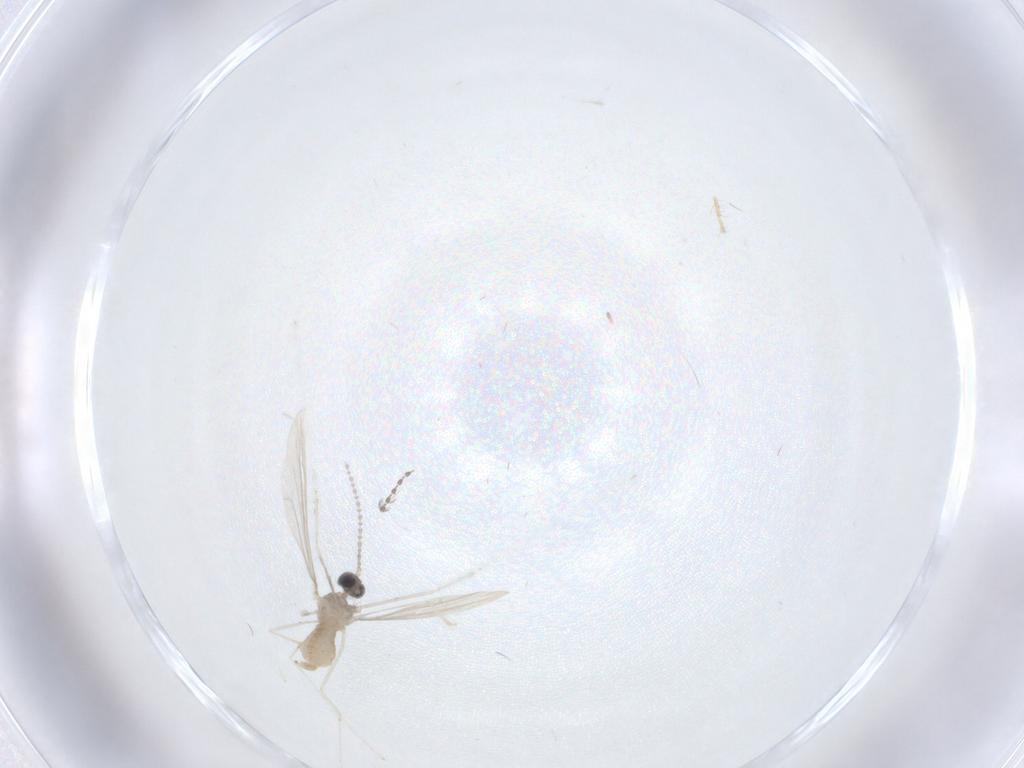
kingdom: Animalia
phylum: Arthropoda
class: Insecta
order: Diptera
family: Chironomidae
